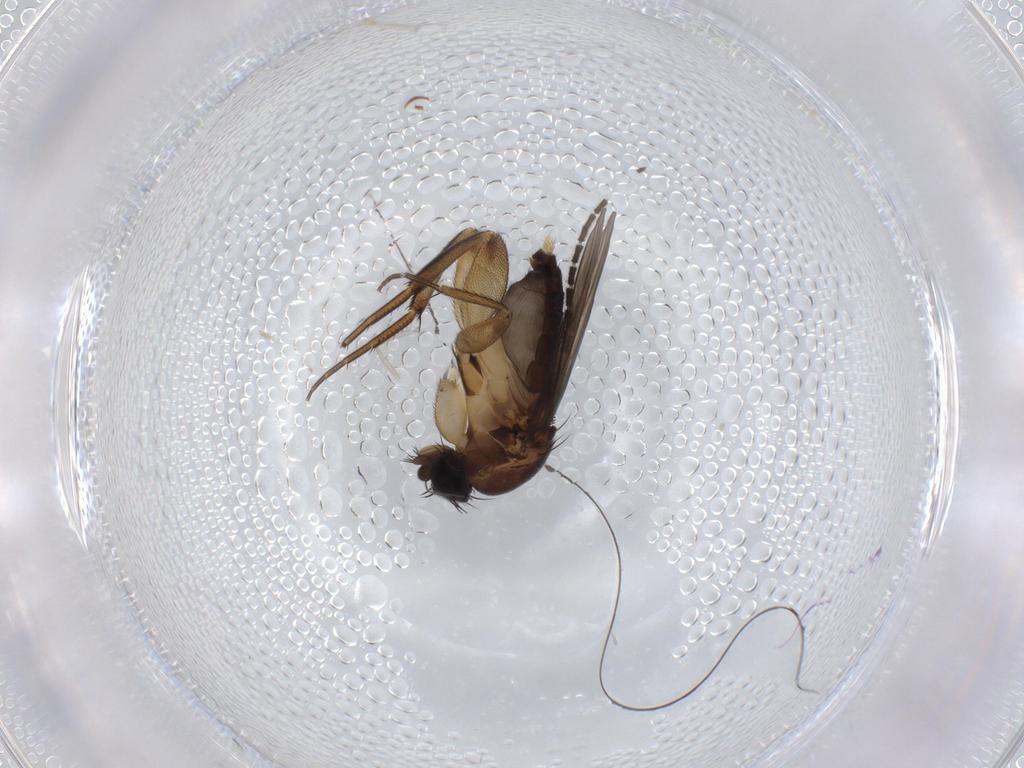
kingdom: Animalia
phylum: Arthropoda
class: Insecta
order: Diptera
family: Phoridae
